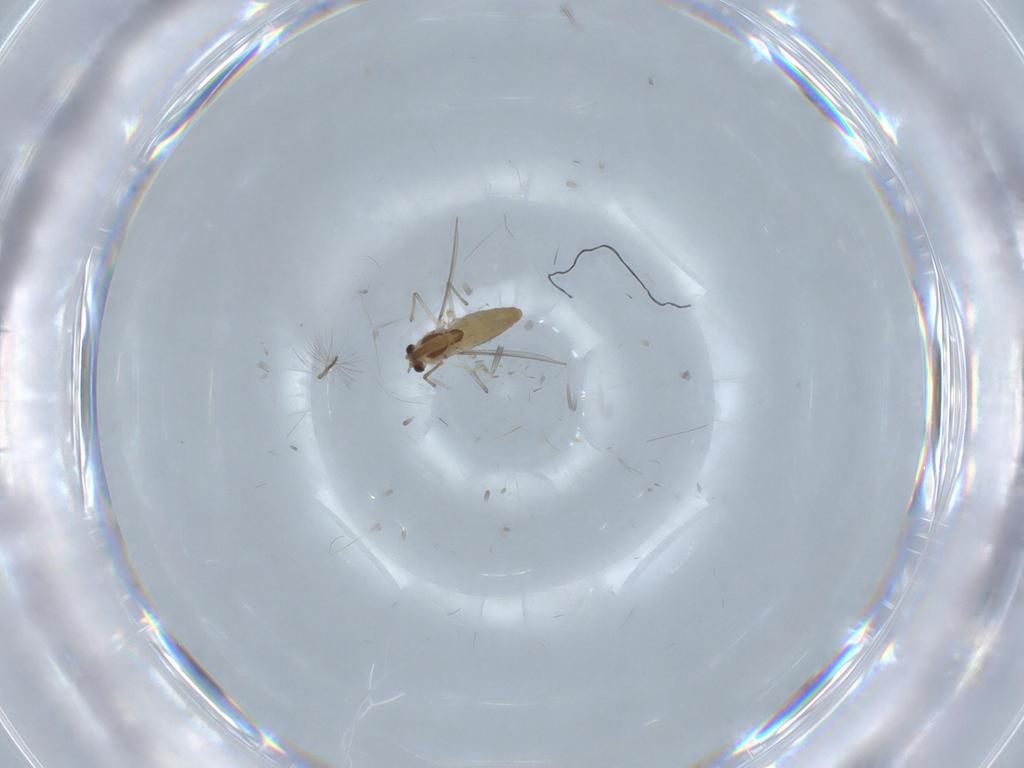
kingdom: Animalia
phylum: Arthropoda
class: Insecta
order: Diptera
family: Chironomidae
